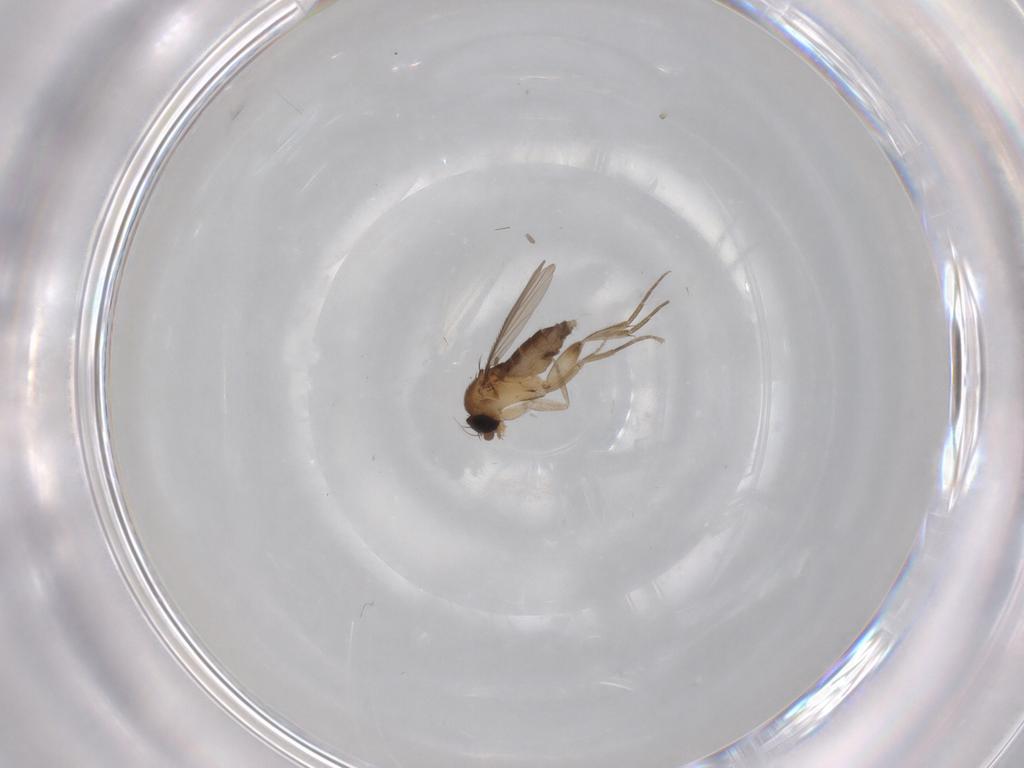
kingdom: Animalia
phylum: Arthropoda
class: Insecta
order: Diptera
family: Phoridae
